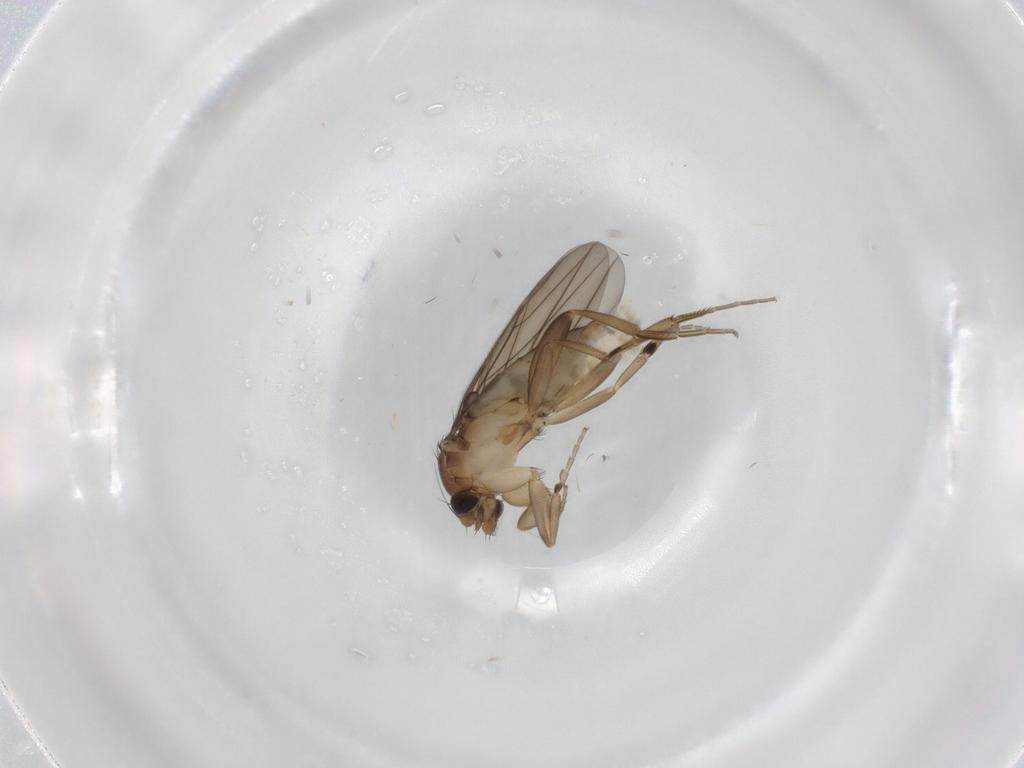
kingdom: Animalia
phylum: Arthropoda
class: Insecta
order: Diptera
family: Phoridae
